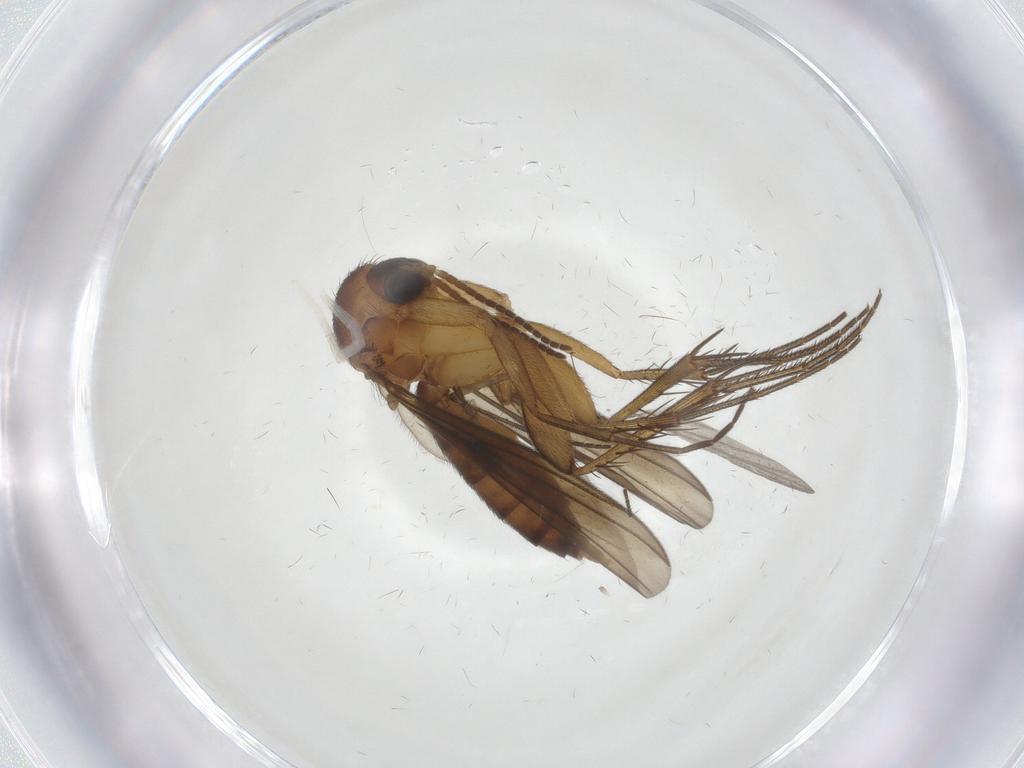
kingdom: Animalia
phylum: Arthropoda
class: Insecta
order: Diptera
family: Mycetophilidae
